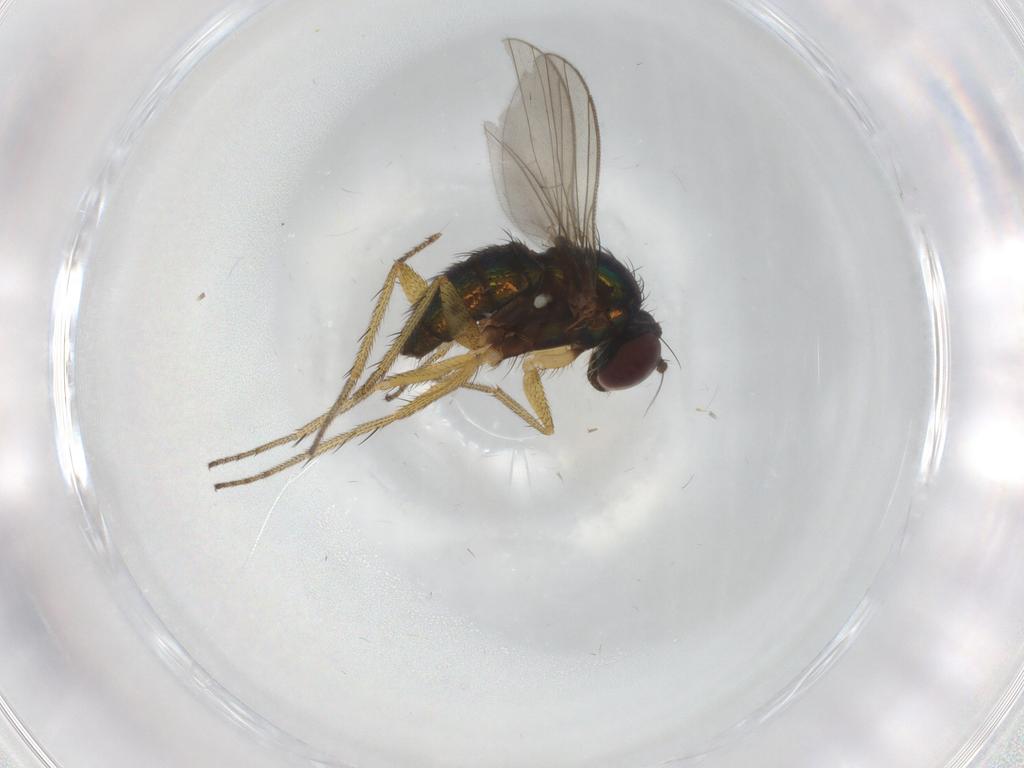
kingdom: Animalia
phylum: Arthropoda
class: Insecta
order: Diptera
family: Dolichopodidae
